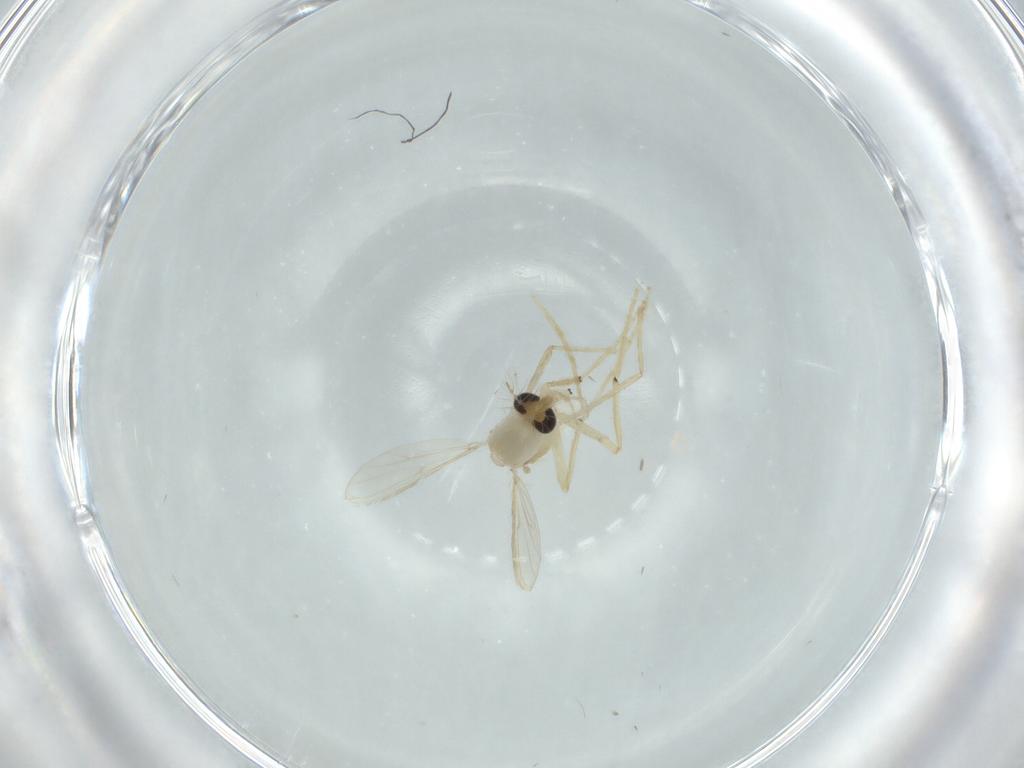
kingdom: Animalia
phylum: Arthropoda
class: Insecta
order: Diptera
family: Chironomidae
